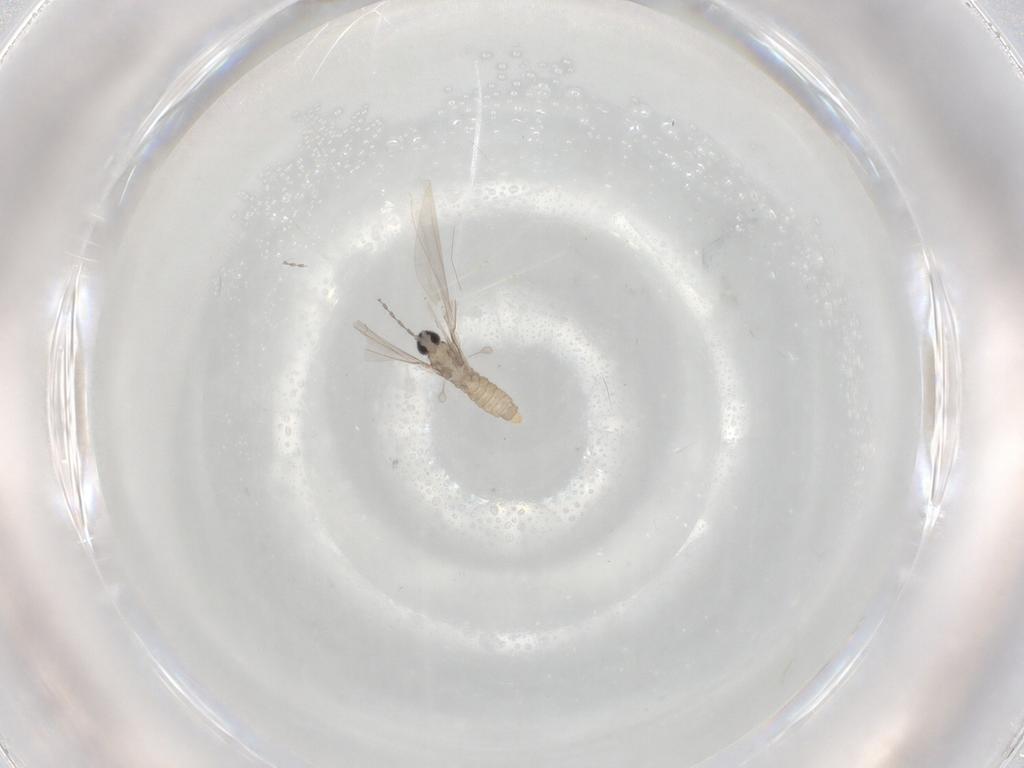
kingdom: Animalia
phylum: Arthropoda
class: Insecta
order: Diptera
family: Cecidomyiidae
